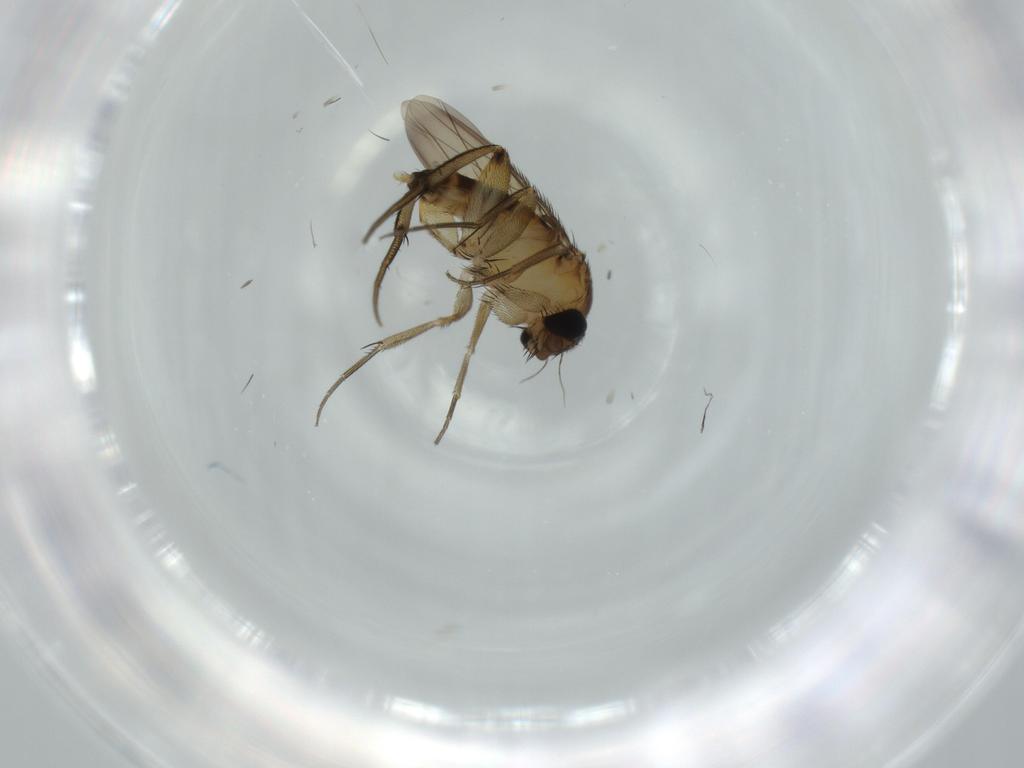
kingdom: Animalia
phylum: Arthropoda
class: Insecta
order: Diptera
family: Phoridae
